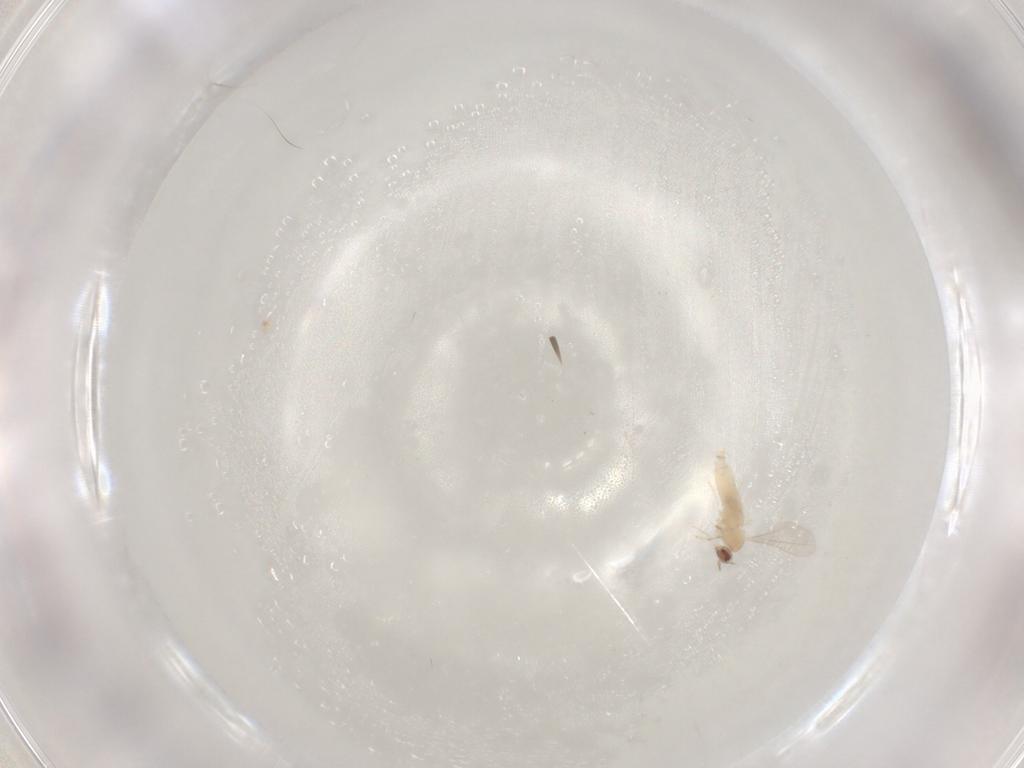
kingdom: Animalia
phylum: Arthropoda
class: Insecta
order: Diptera
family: Cecidomyiidae
